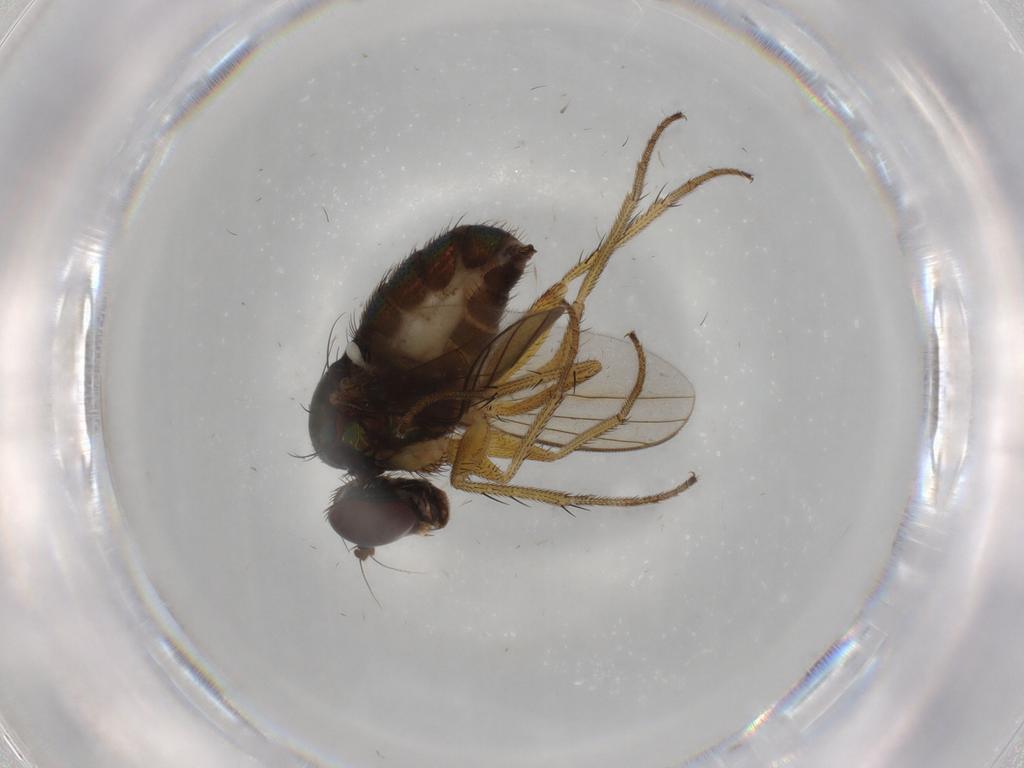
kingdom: Animalia
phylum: Arthropoda
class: Insecta
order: Diptera
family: Dolichopodidae
